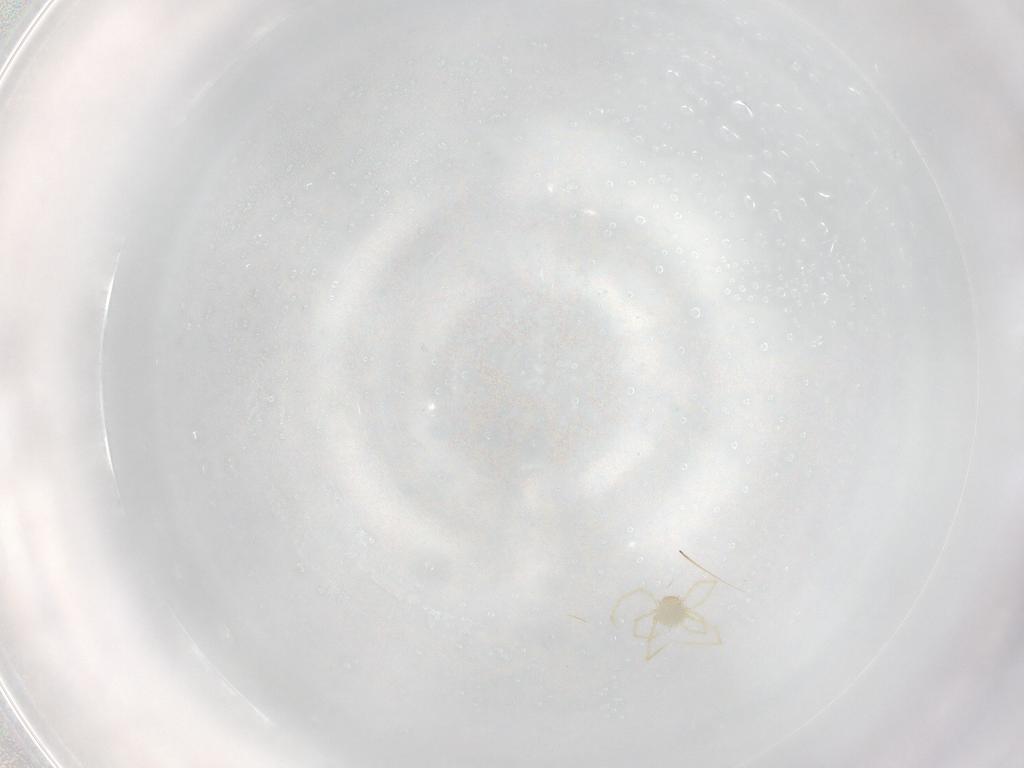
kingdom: Animalia
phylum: Arthropoda
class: Arachnida
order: Trombidiformes
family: Erythraeidae
